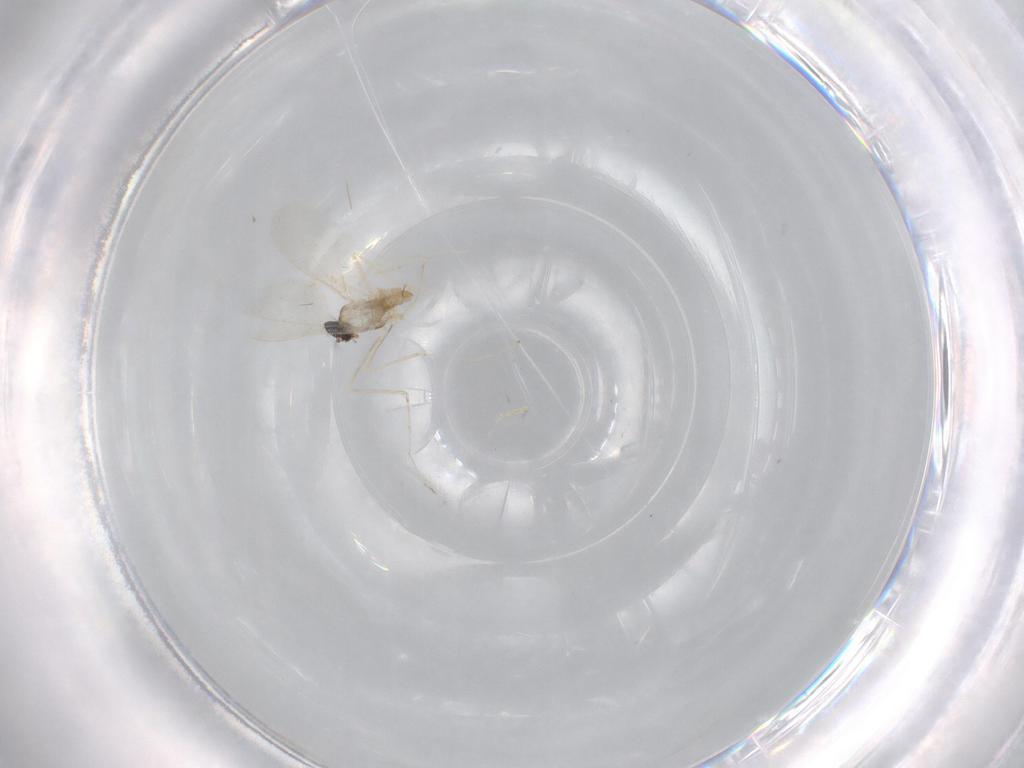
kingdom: Animalia
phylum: Arthropoda
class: Insecta
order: Diptera
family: Cecidomyiidae
